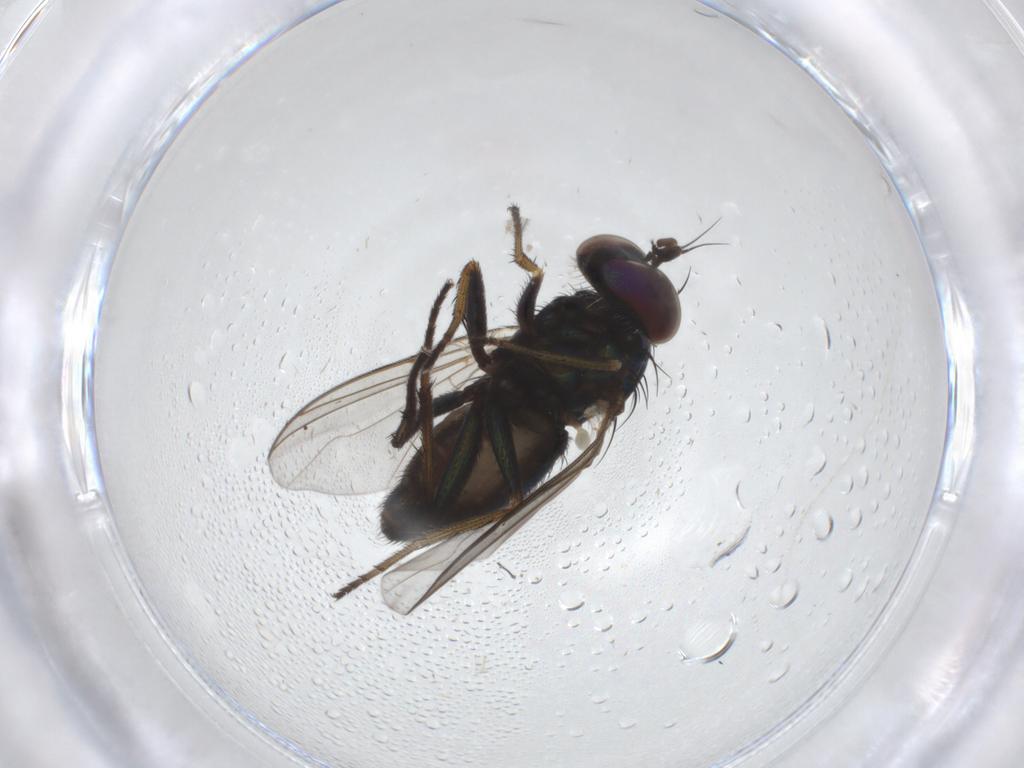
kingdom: Animalia
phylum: Arthropoda
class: Insecta
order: Diptera
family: Dolichopodidae
